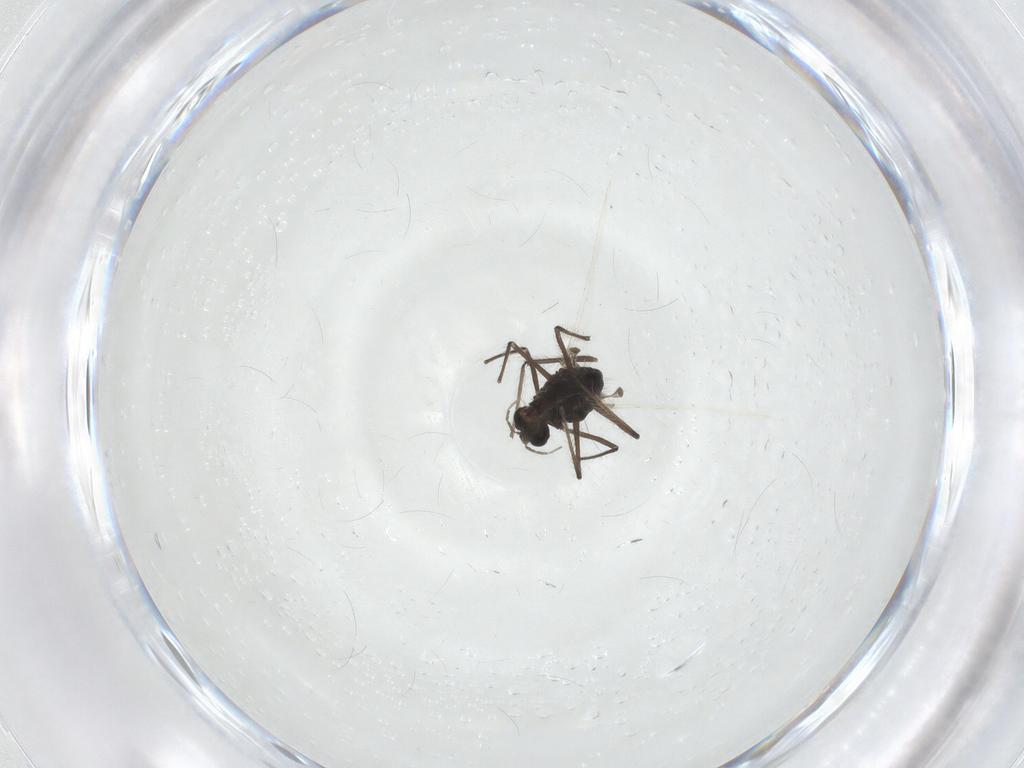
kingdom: Animalia
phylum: Arthropoda
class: Insecta
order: Diptera
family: Chironomidae
